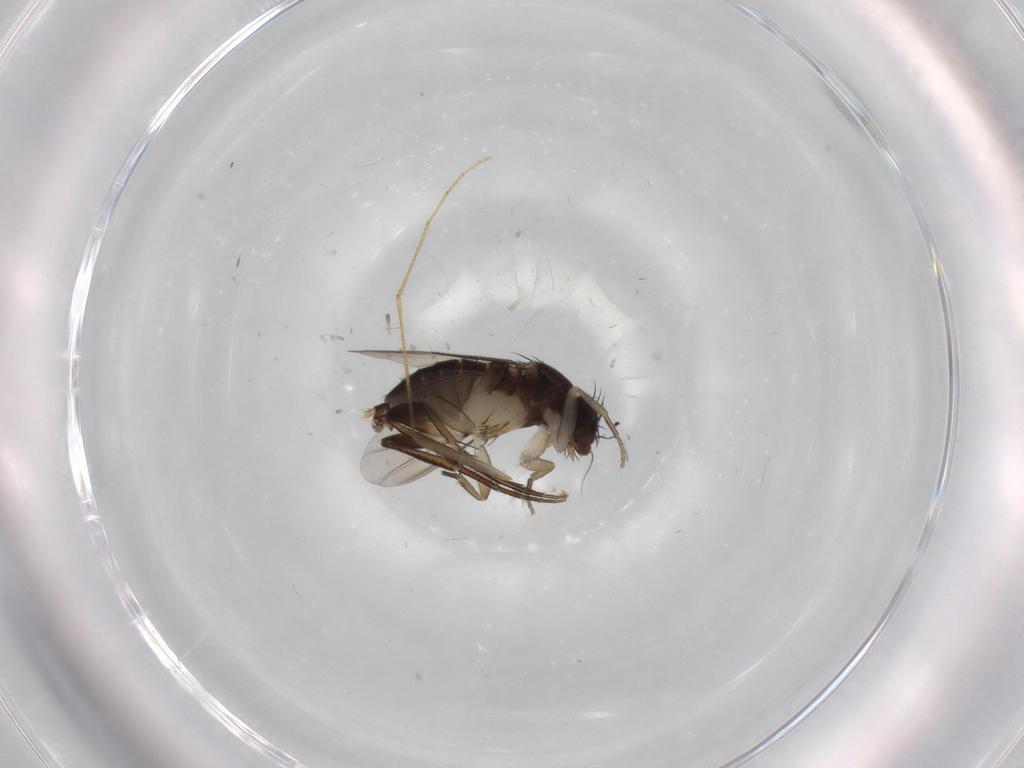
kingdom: Animalia
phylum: Arthropoda
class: Insecta
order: Diptera
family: Phoridae
